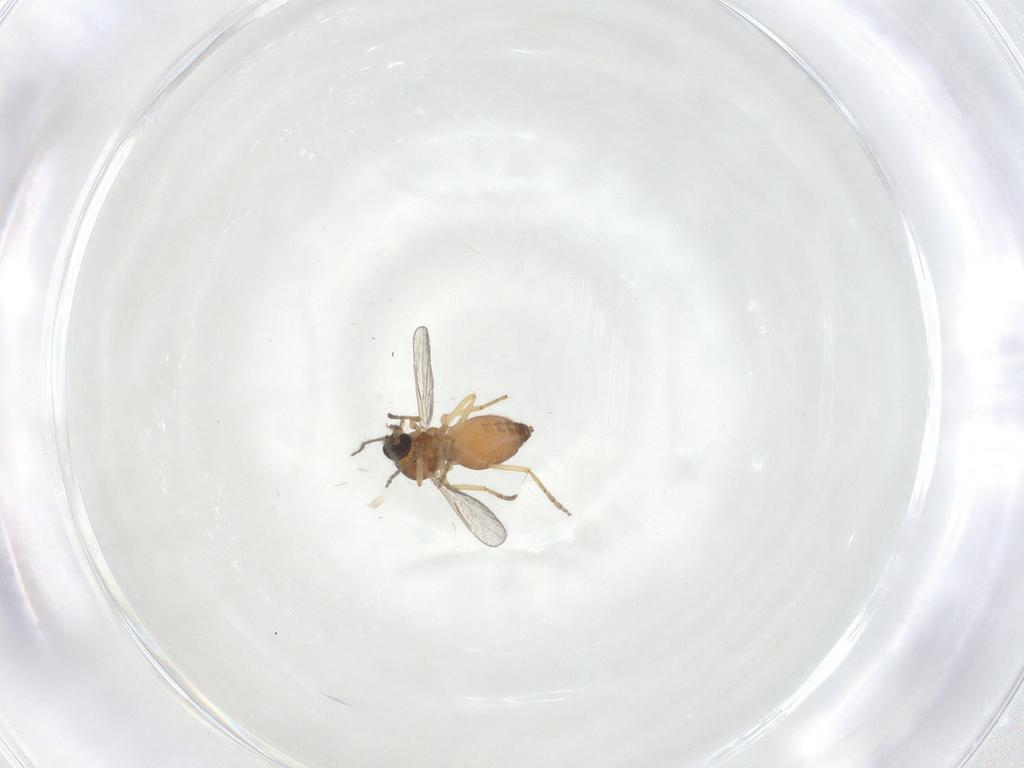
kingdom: Animalia
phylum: Arthropoda
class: Insecta
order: Diptera
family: Ceratopogonidae
